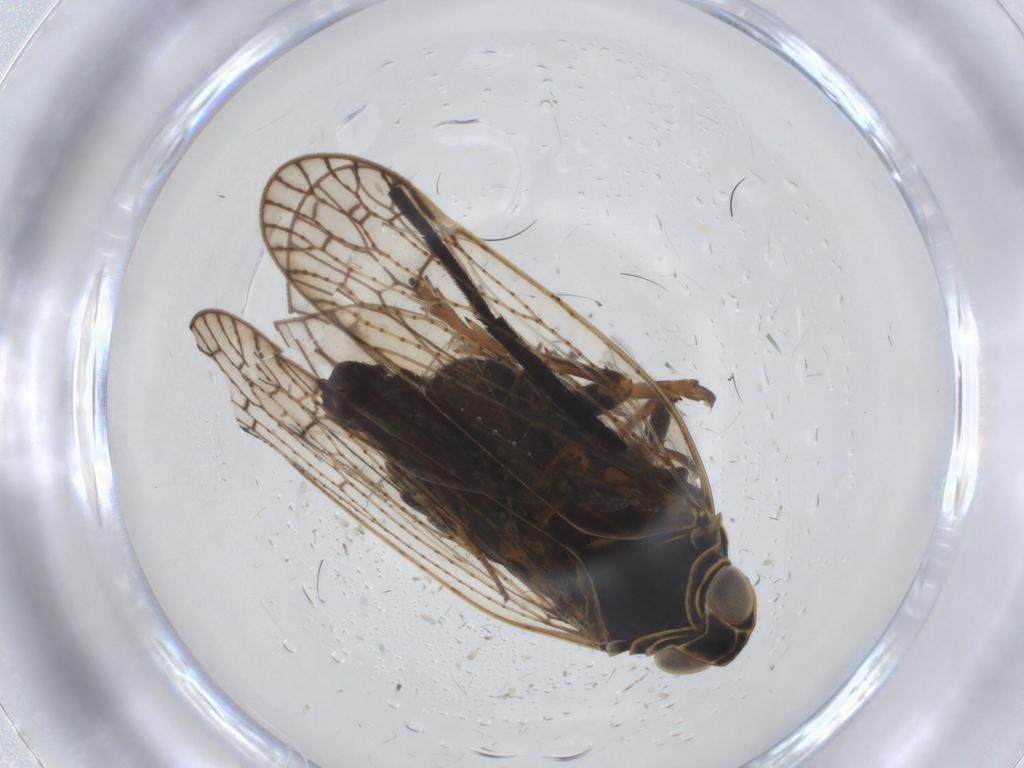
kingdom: Animalia
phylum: Arthropoda
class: Insecta
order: Hemiptera
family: Cixiidae
